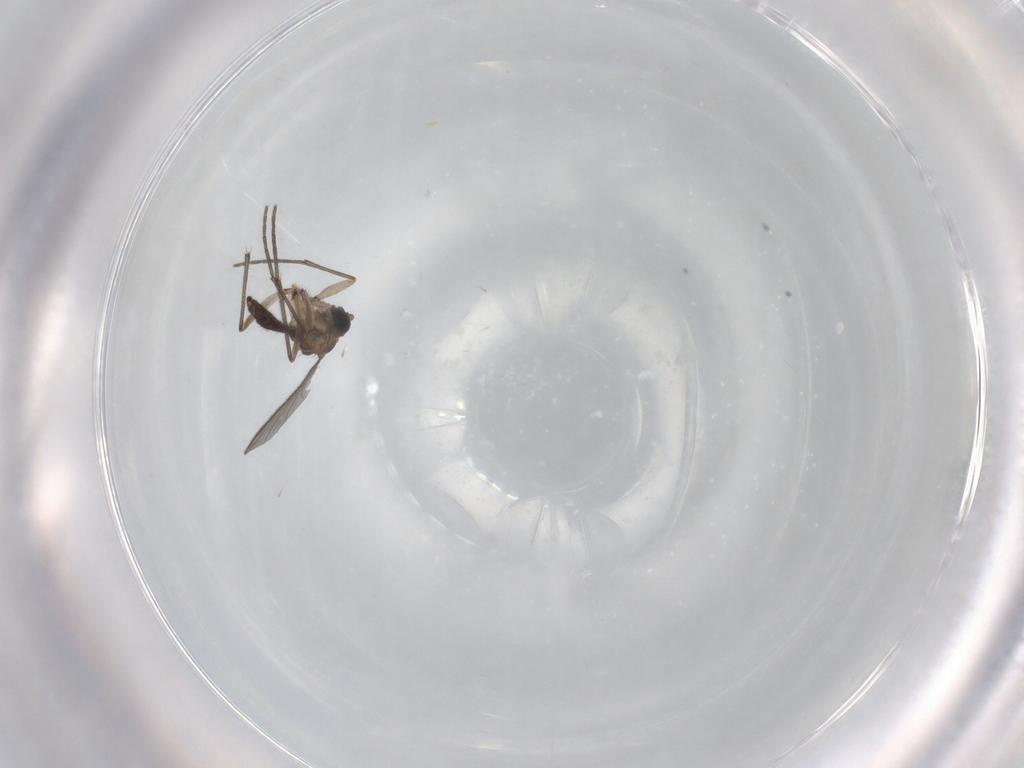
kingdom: Animalia
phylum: Arthropoda
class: Insecta
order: Diptera
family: Sciaridae
